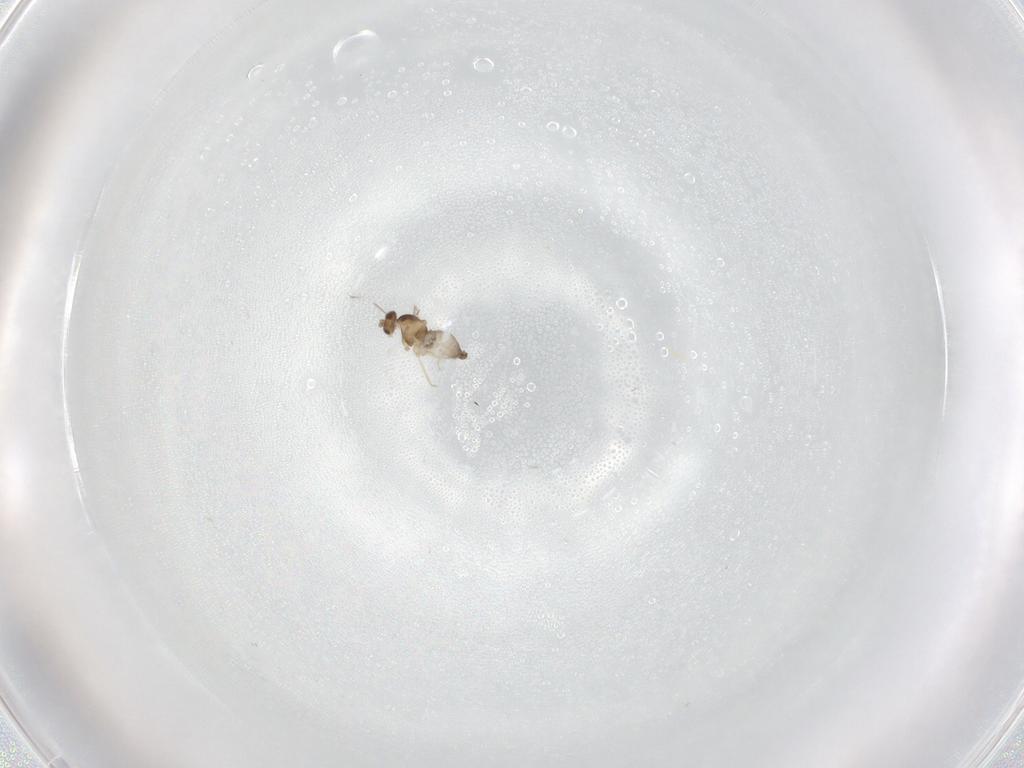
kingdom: Animalia
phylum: Arthropoda
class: Insecta
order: Diptera
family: Cecidomyiidae
